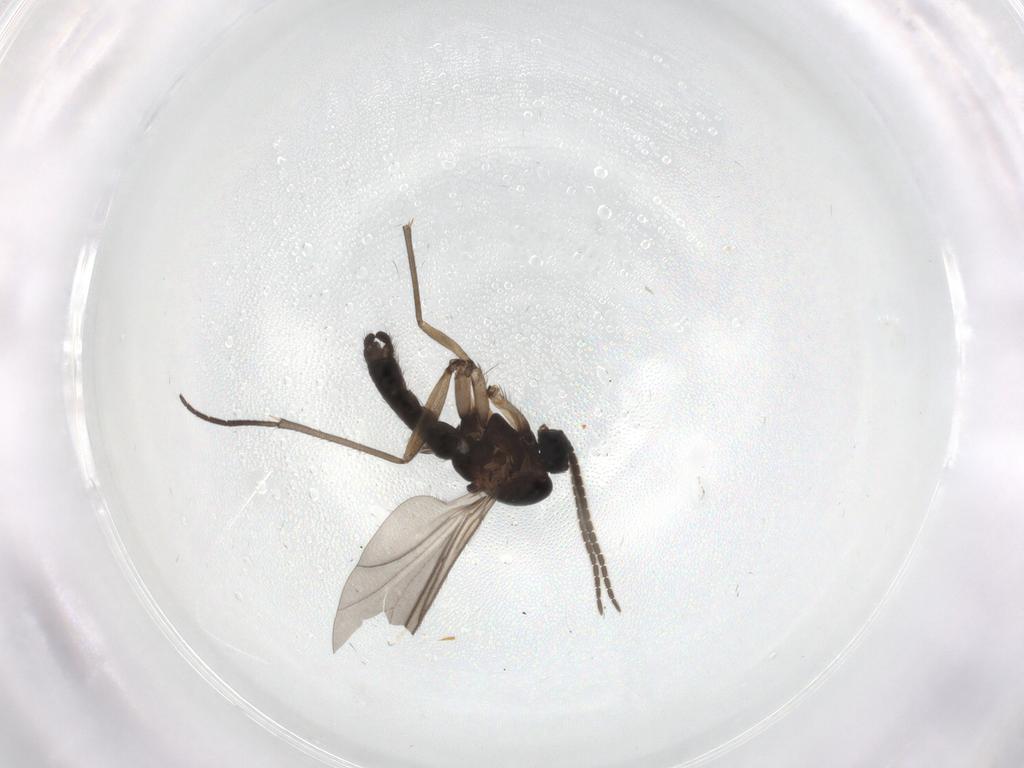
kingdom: Animalia
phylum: Arthropoda
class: Insecta
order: Diptera
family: Sciaridae
